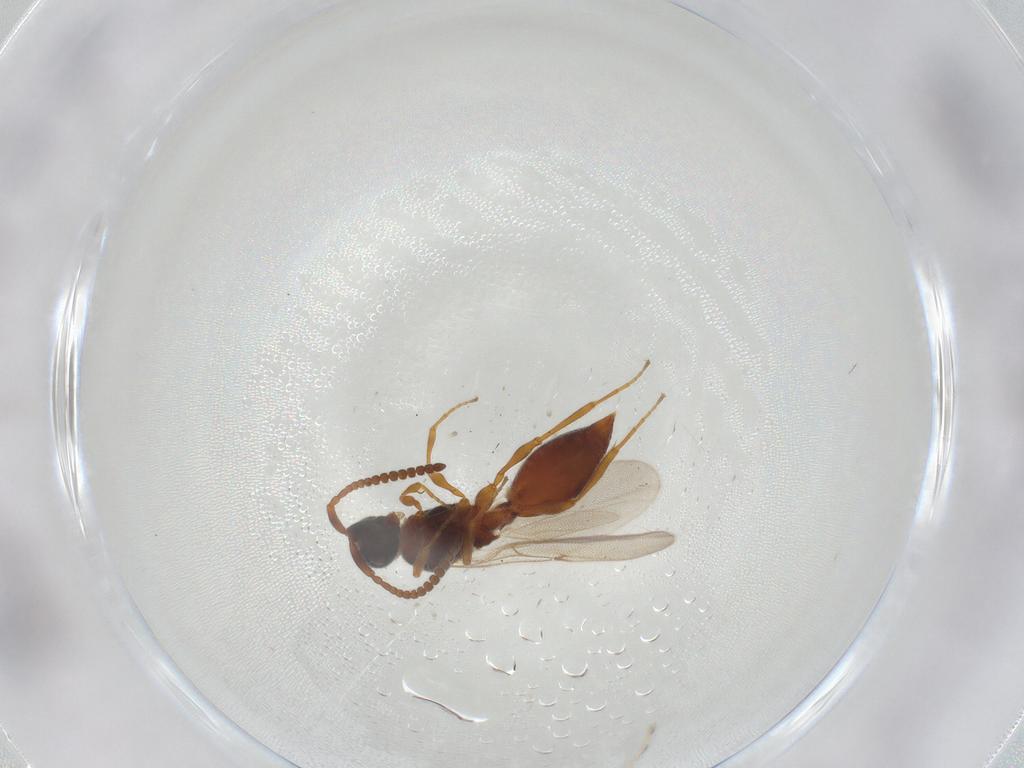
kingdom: Animalia
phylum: Arthropoda
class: Insecta
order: Hymenoptera
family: Diapriidae
